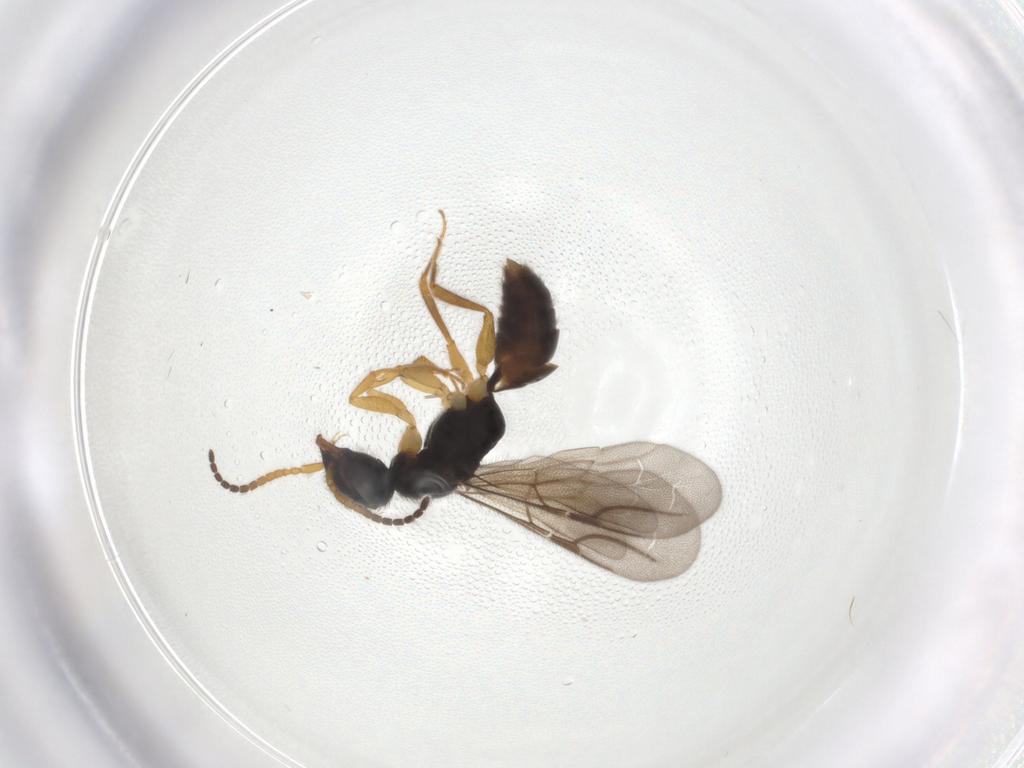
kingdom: Animalia
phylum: Arthropoda
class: Insecta
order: Hymenoptera
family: Bethylidae
